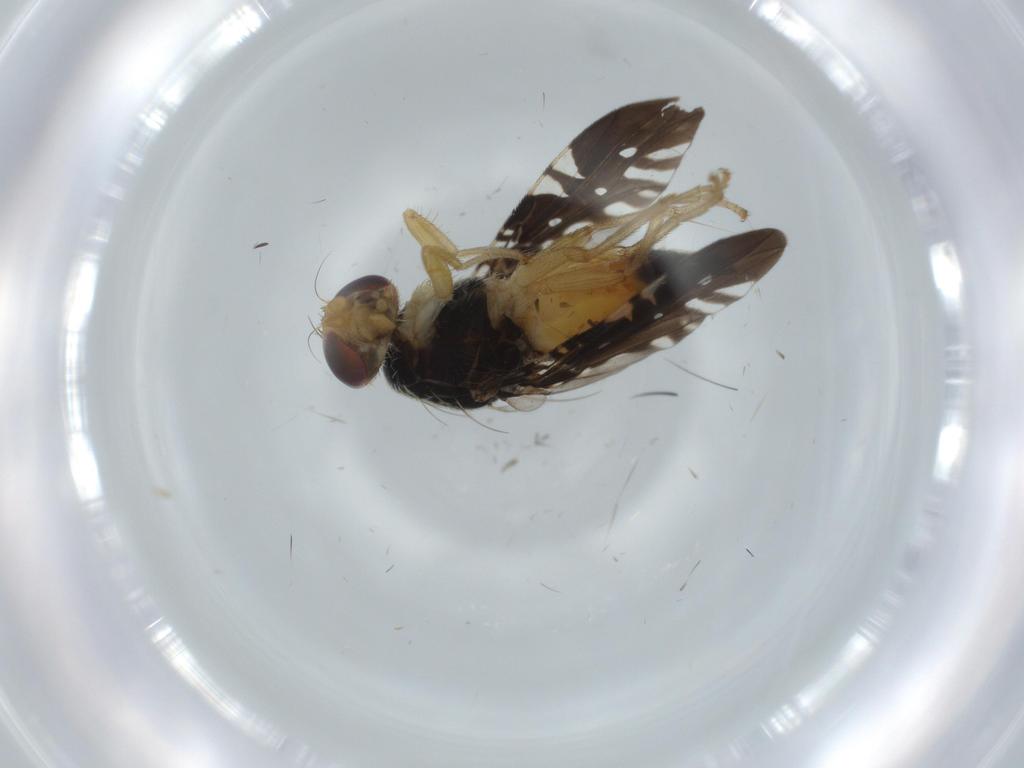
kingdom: Animalia
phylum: Arthropoda
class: Insecta
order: Diptera
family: Tephritidae
